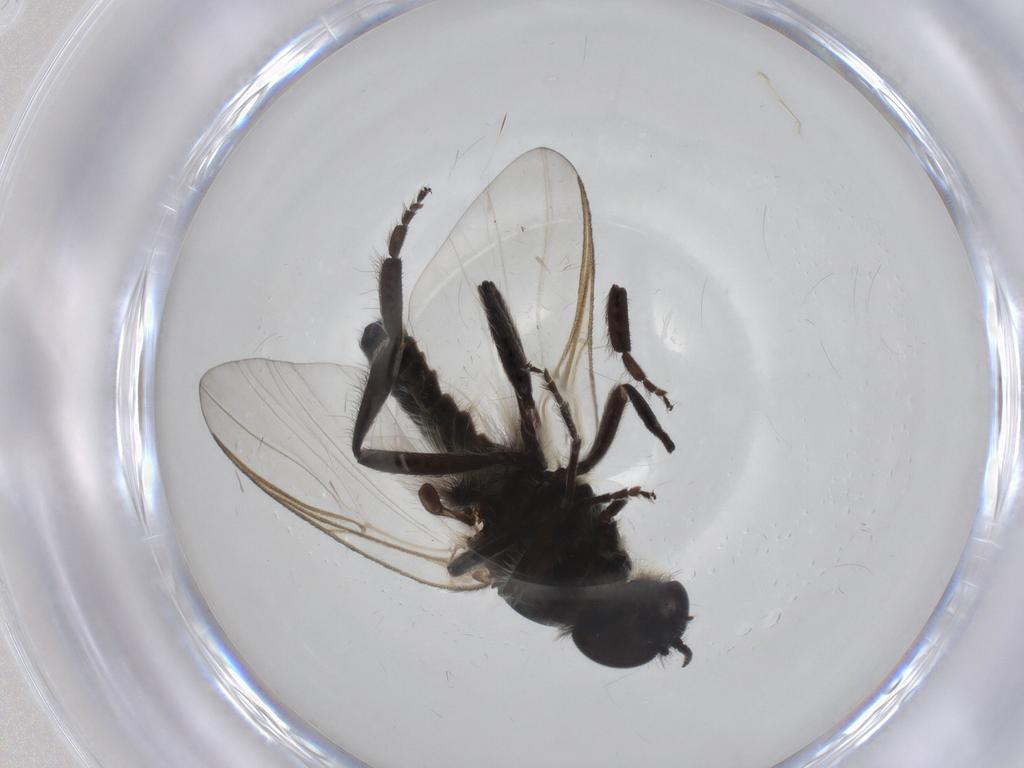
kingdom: Animalia
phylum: Arthropoda
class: Insecta
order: Diptera
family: Simuliidae
